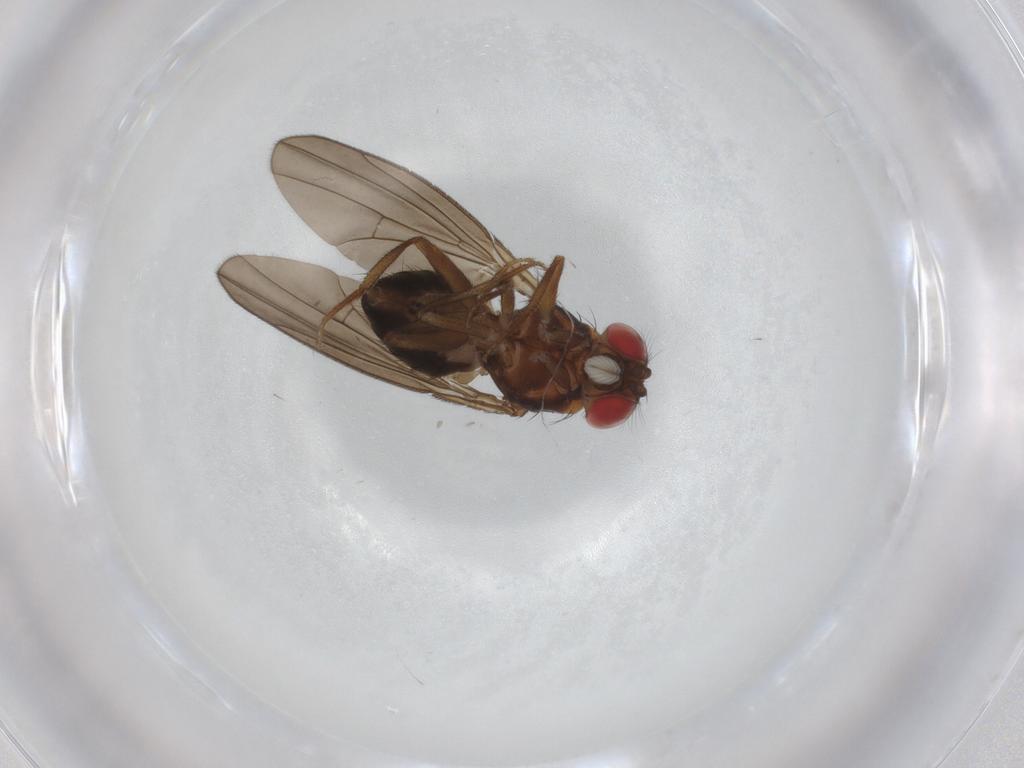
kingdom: Animalia
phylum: Arthropoda
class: Insecta
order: Diptera
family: Drosophilidae
